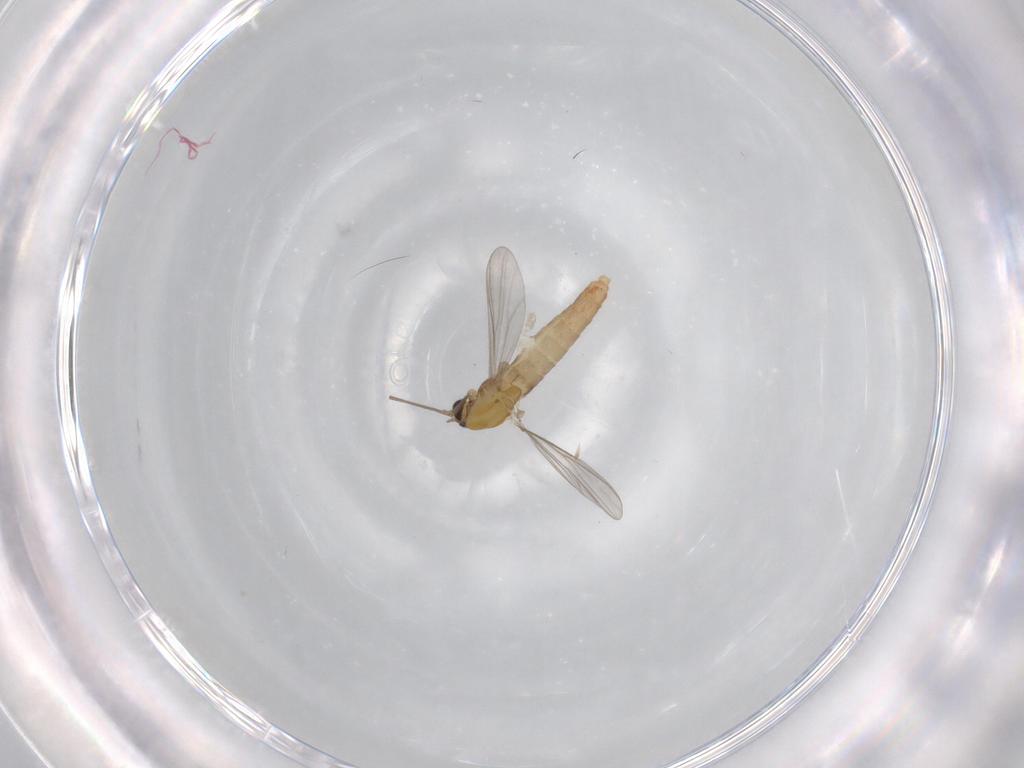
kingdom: Animalia
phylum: Arthropoda
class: Insecta
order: Diptera
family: Chironomidae
